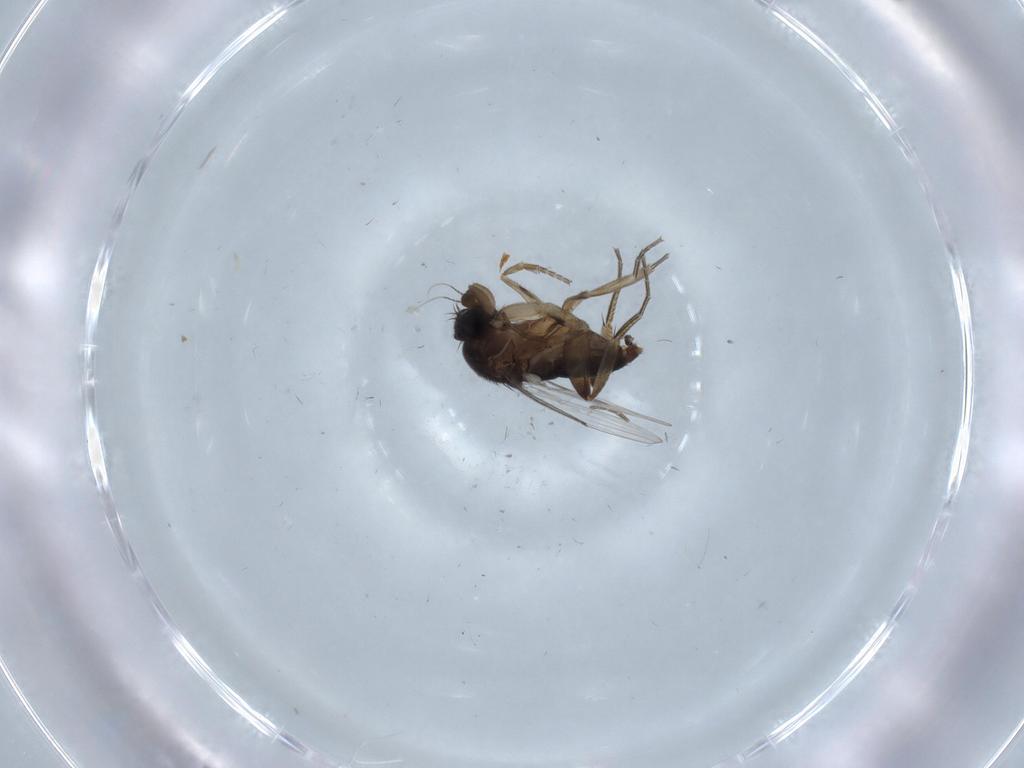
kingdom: Animalia
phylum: Arthropoda
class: Insecta
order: Diptera
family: Phoridae
